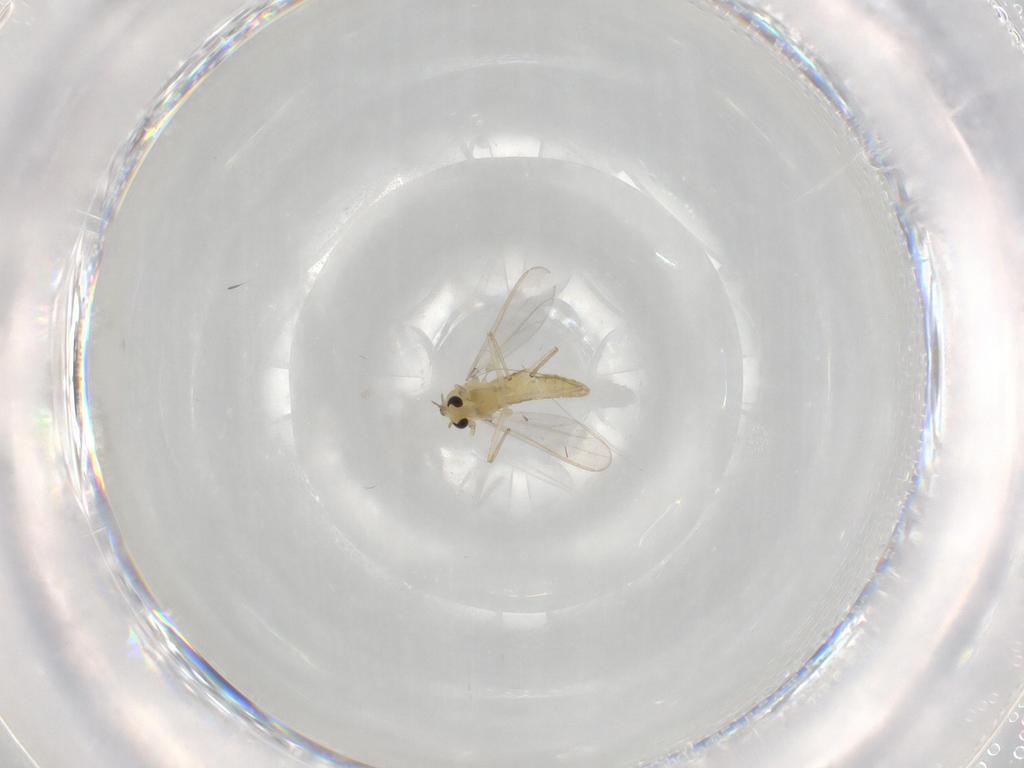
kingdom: Animalia
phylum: Arthropoda
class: Insecta
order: Diptera
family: Chironomidae
